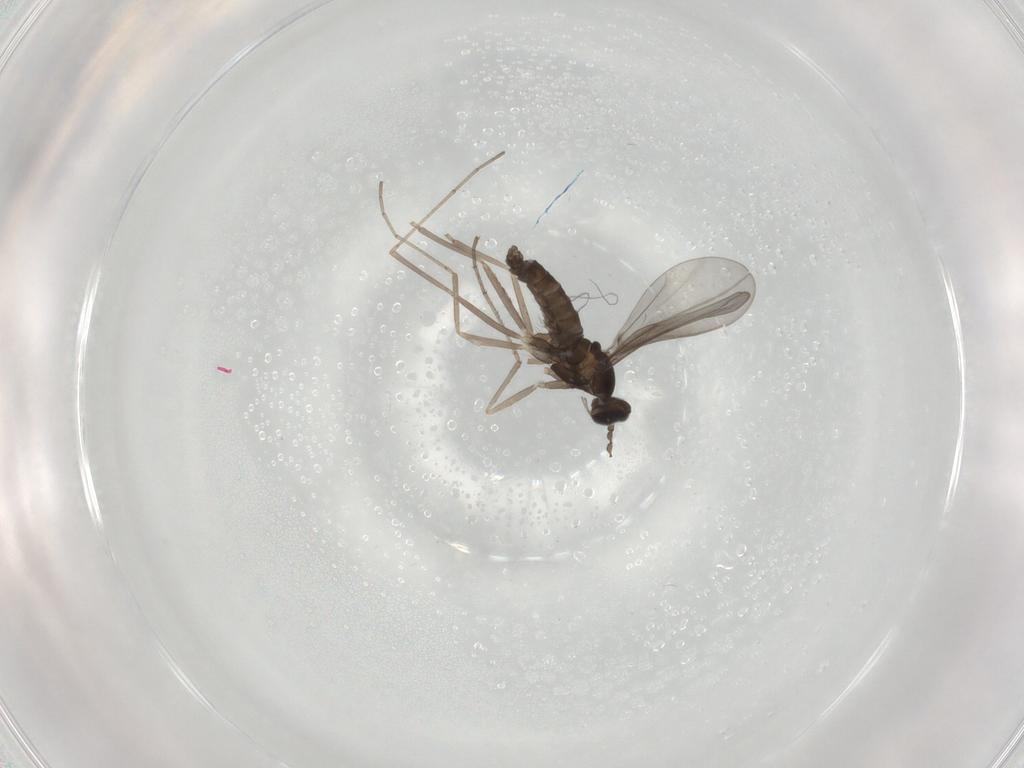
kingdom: Animalia
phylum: Arthropoda
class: Insecta
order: Diptera
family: Cecidomyiidae
